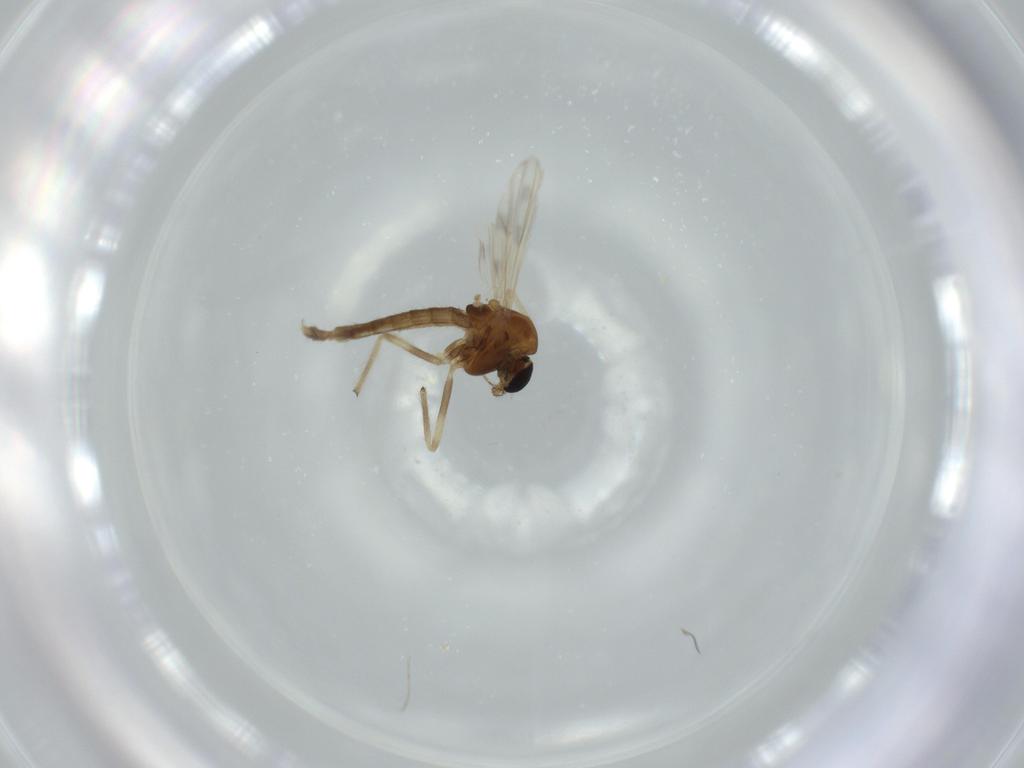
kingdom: Animalia
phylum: Arthropoda
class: Insecta
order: Diptera
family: Chironomidae
